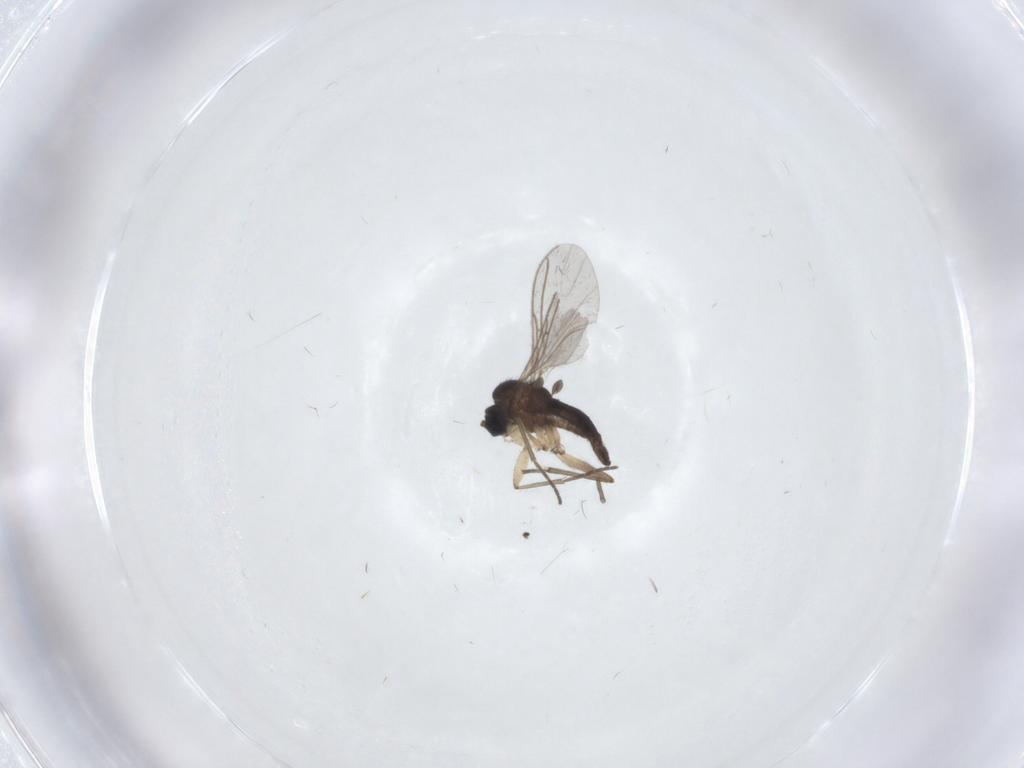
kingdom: Animalia
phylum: Arthropoda
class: Insecta
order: Diptera
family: Sciaridae
